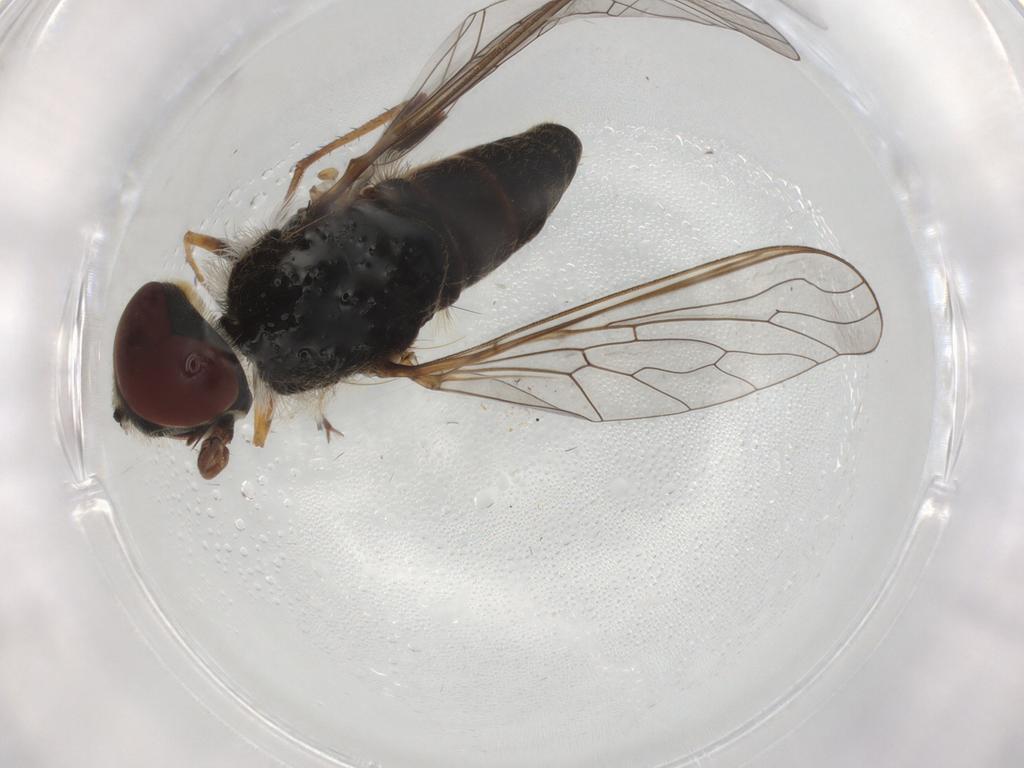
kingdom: Animalia
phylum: Arthropoda
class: Insecta
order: Diptera
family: Bombyliidae
